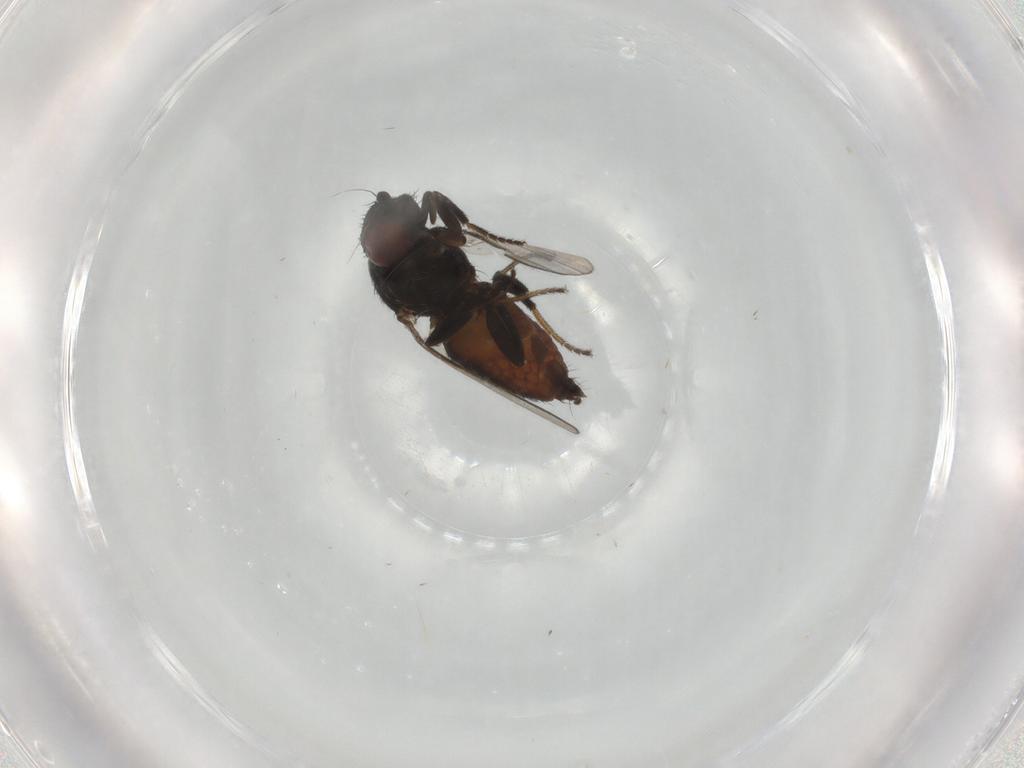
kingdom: Animalia
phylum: Arthropoda
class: Insecta
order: Diptera
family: Milichiidae
